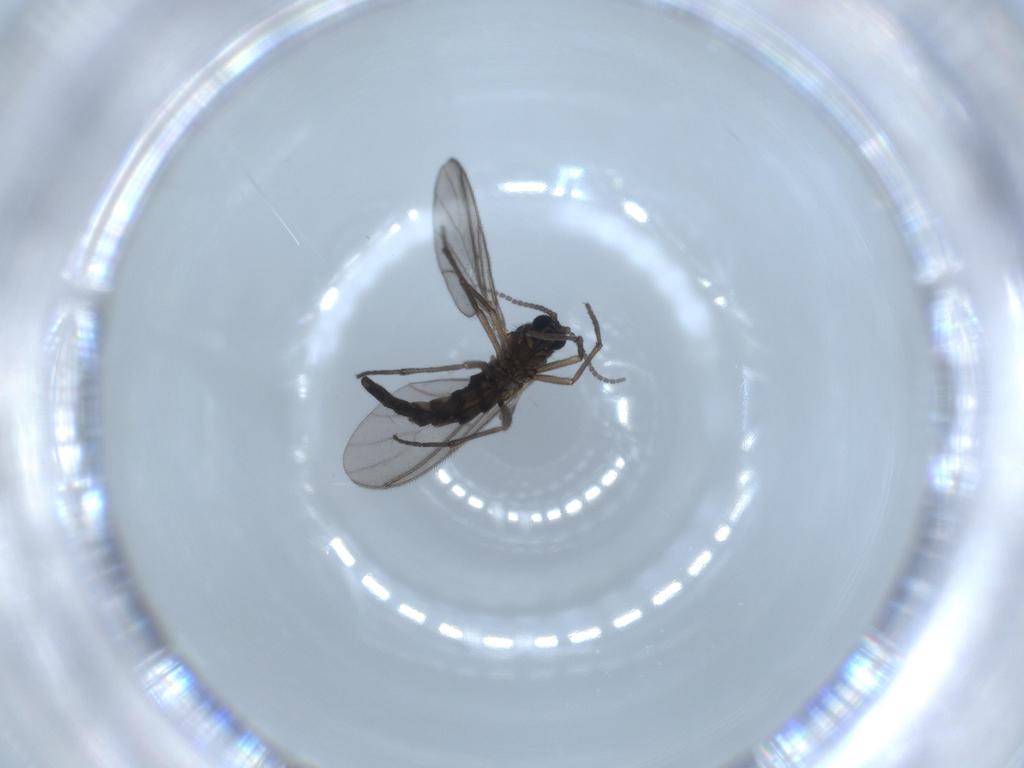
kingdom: Animalia
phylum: Arthropoda
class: Insecta
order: Diptera
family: Sciaridae
